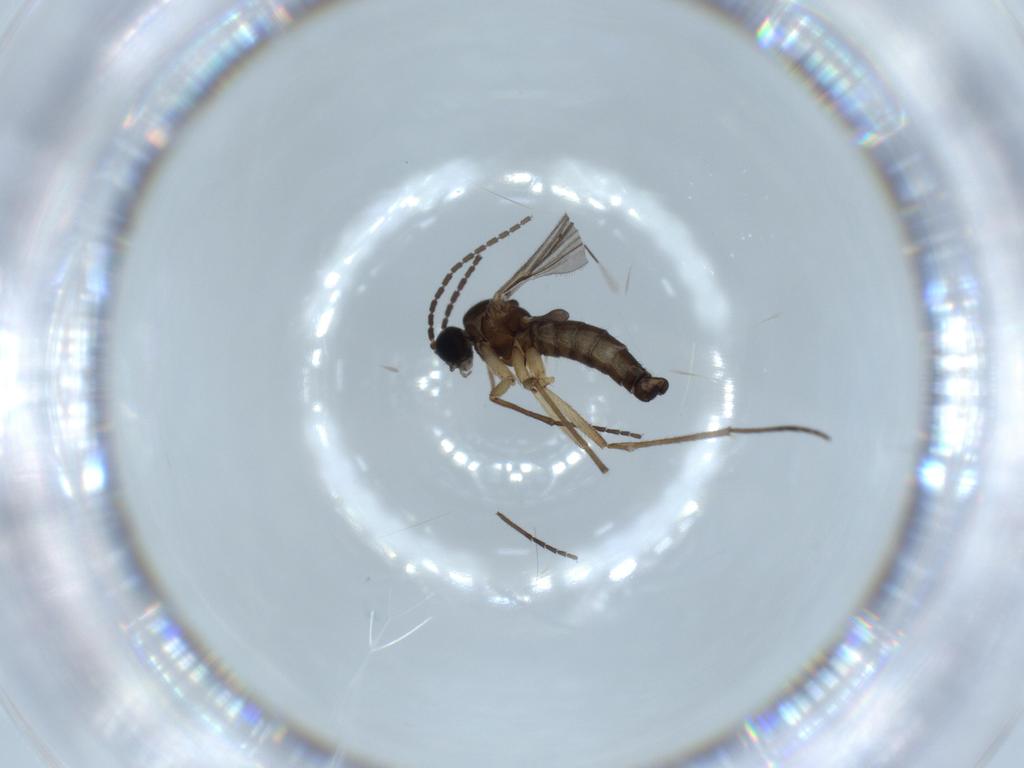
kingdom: Animalia
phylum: Arthropoda
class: Insecta
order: Diptera
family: Sciaridae
